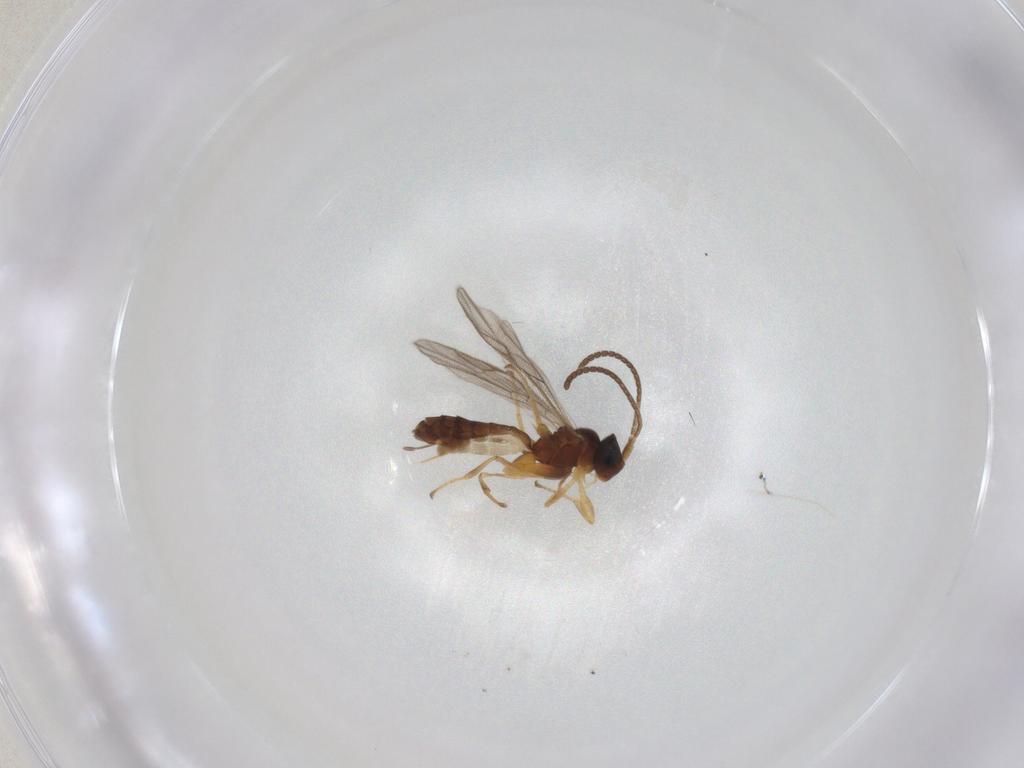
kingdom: Animalia
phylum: Arthropoda
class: Insecta
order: Hymenoptera
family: Ichneumonidae
